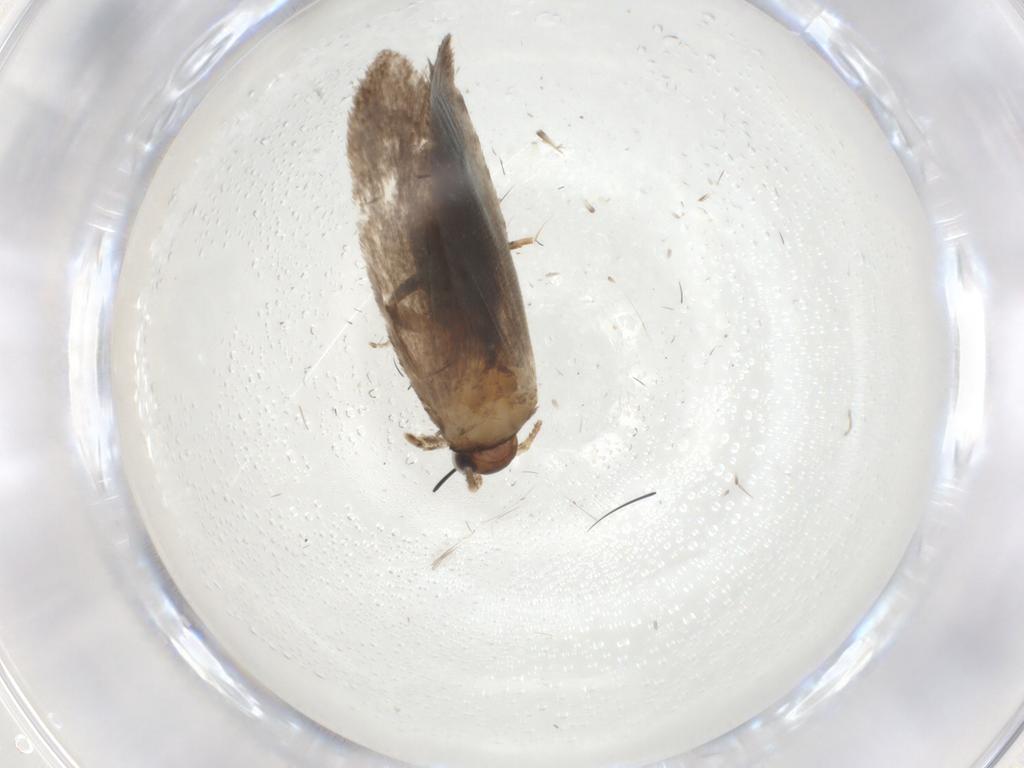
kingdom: Animalia
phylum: Arthropoda
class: Insecta
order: Lepidoptera
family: Dryadaulidae
